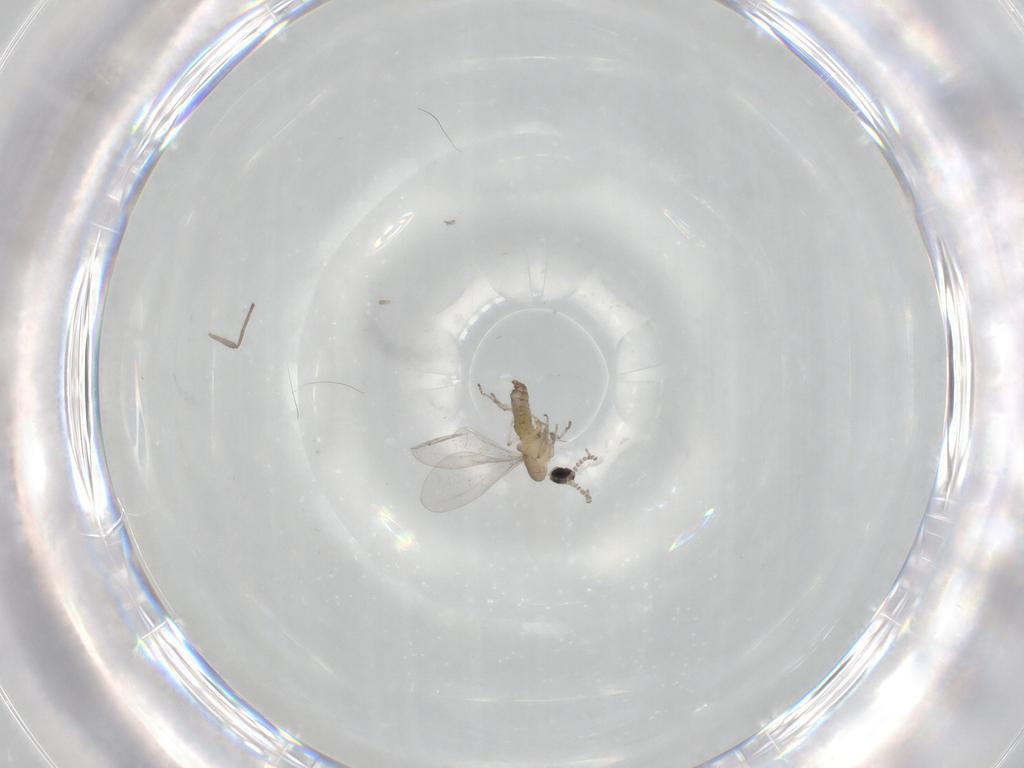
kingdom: Animalia
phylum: Arthropoda
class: Insecta
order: Diptera
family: Cecidomyiidae
